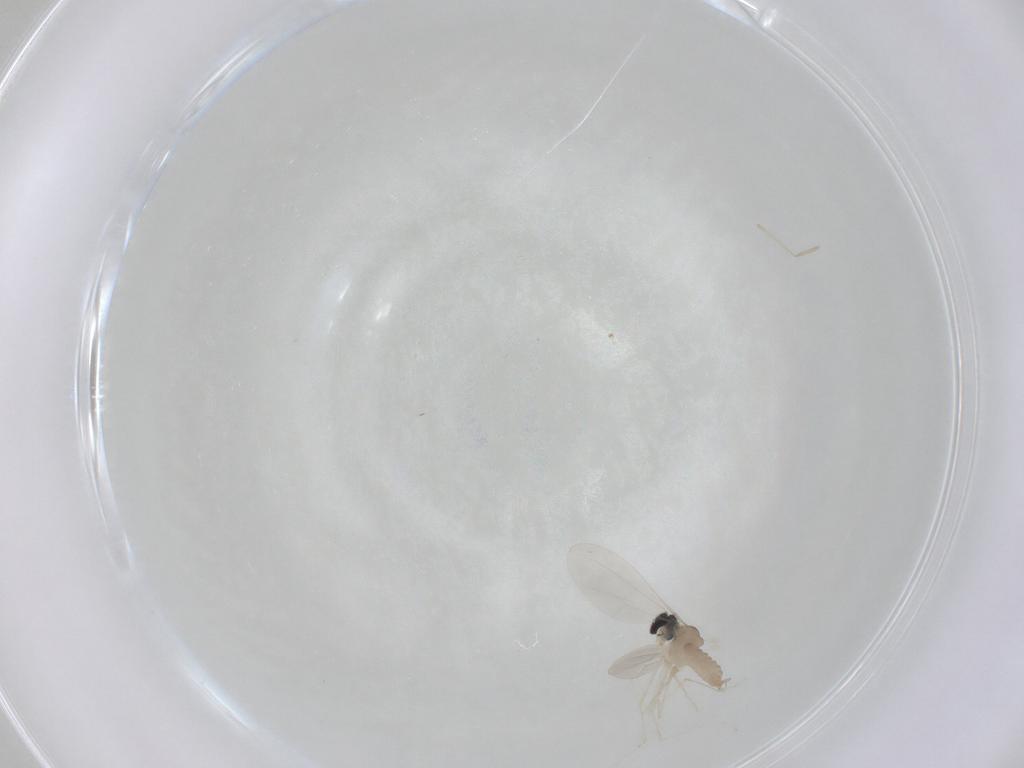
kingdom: Animalia
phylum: Arthropoda
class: Insecta
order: Diptera
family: Cecidomyiidae
